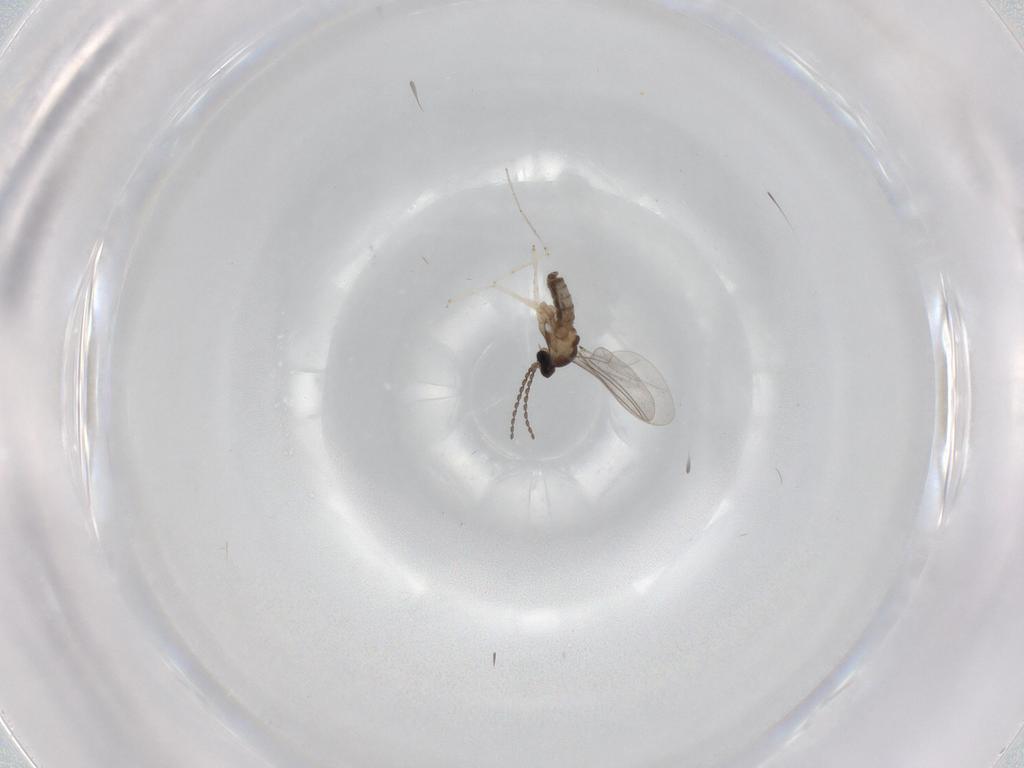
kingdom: Animalia
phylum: Arthropoda
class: Insecta
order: Diptera
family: Cecidomyiidae
